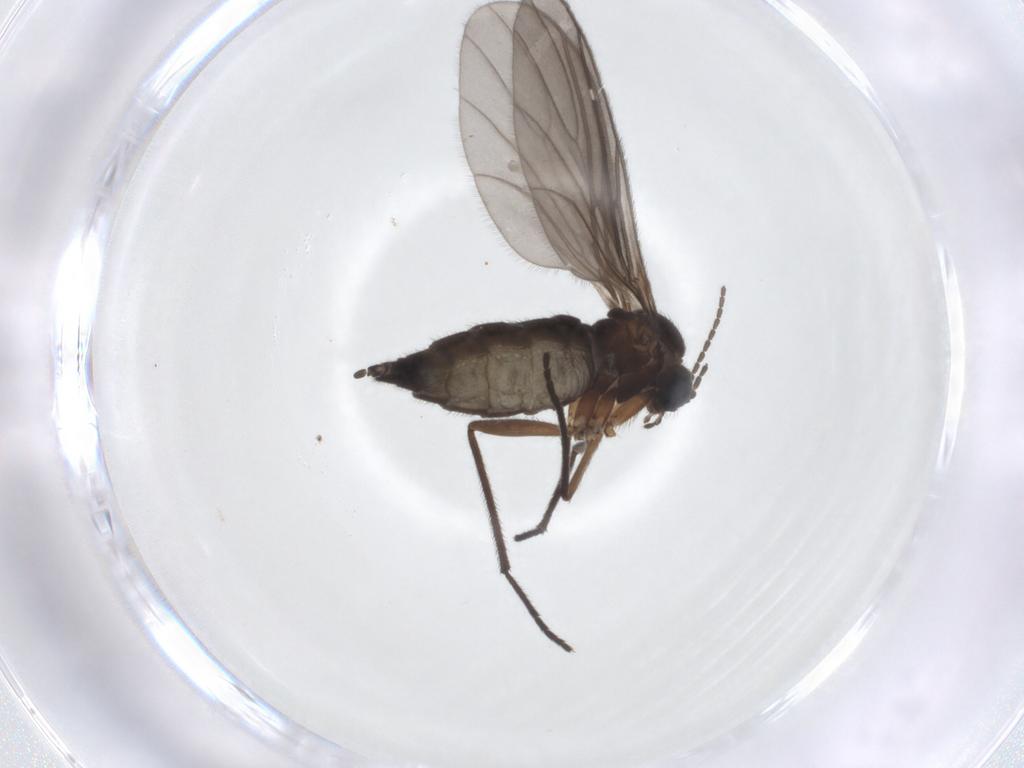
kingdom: Animalia
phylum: Arthropoda
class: Insecta
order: Diptera
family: Sciaridae
